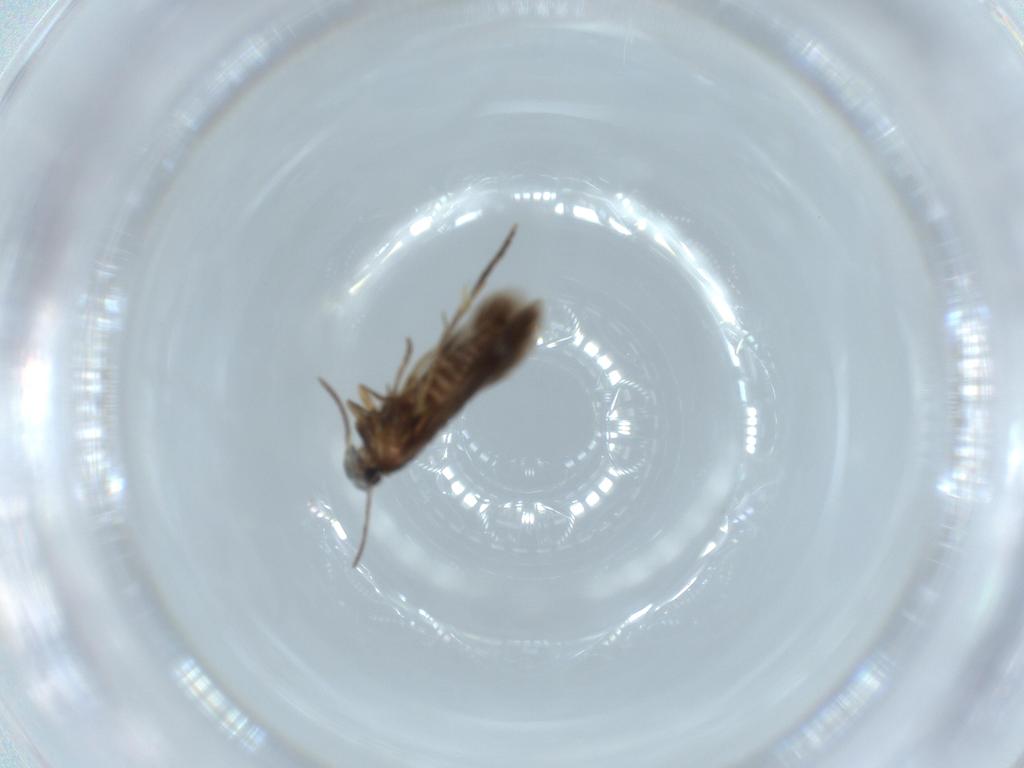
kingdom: Animalia
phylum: Arthropoda
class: Insecta
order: Lepidoptera
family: Heliozelidae
